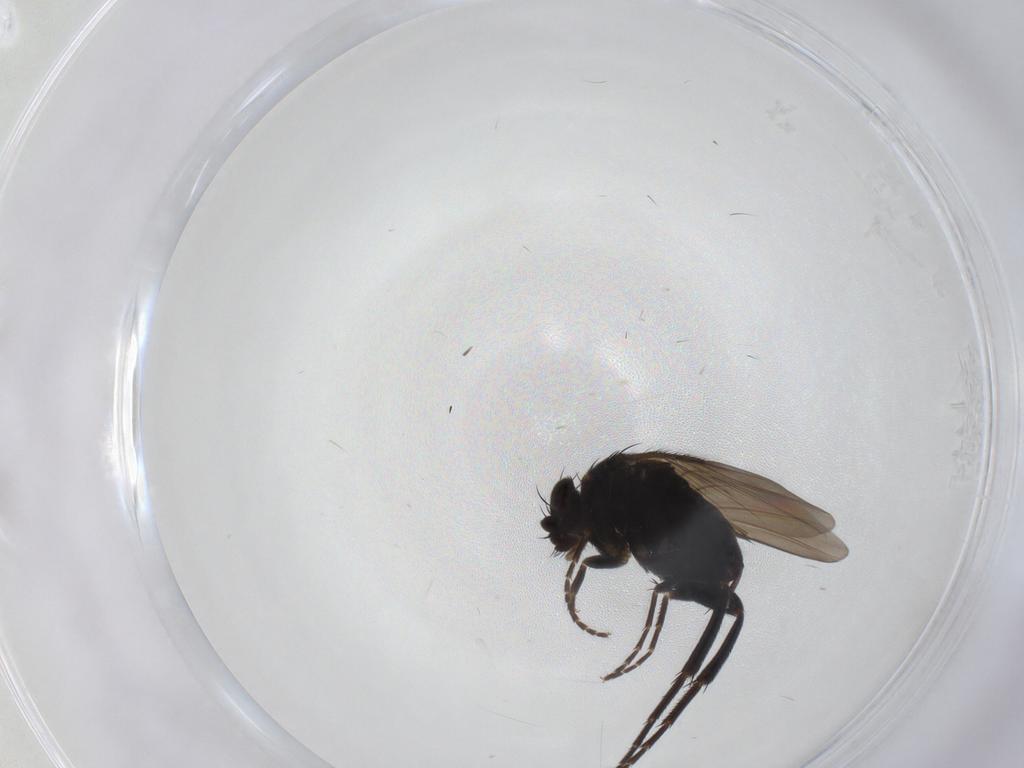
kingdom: Animalia
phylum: Arthropoda
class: Insecta
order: Diptera
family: Phoridae
